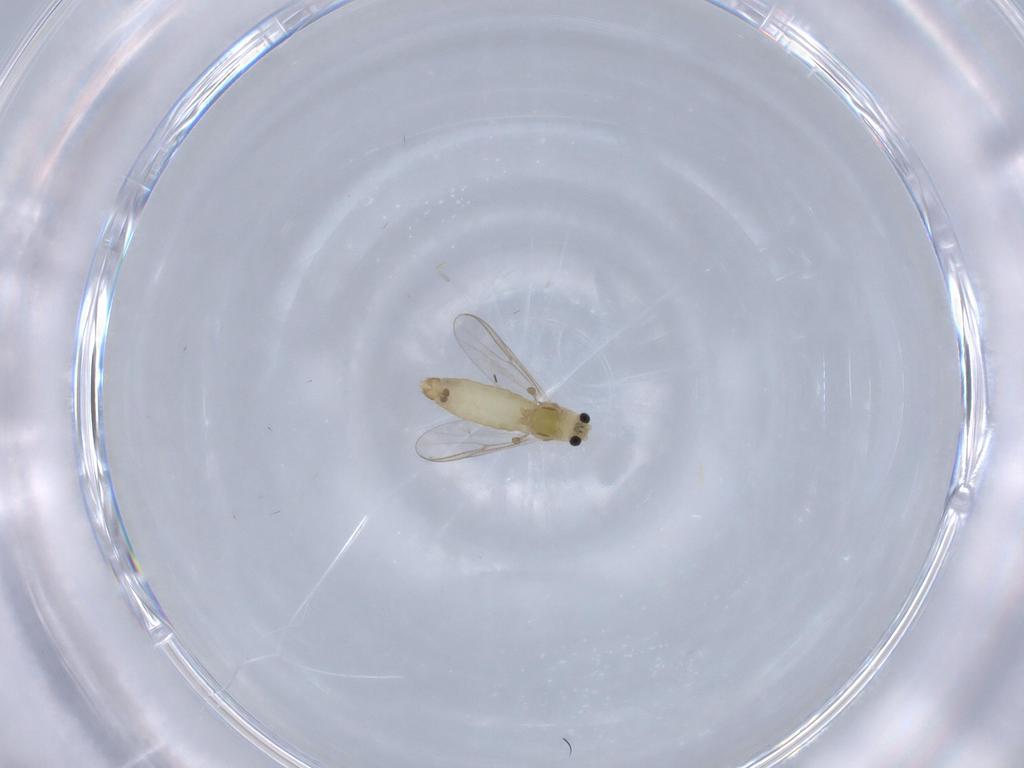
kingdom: Animalia
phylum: Arthropoda
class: Insecta
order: Diptera
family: Chironomidae
